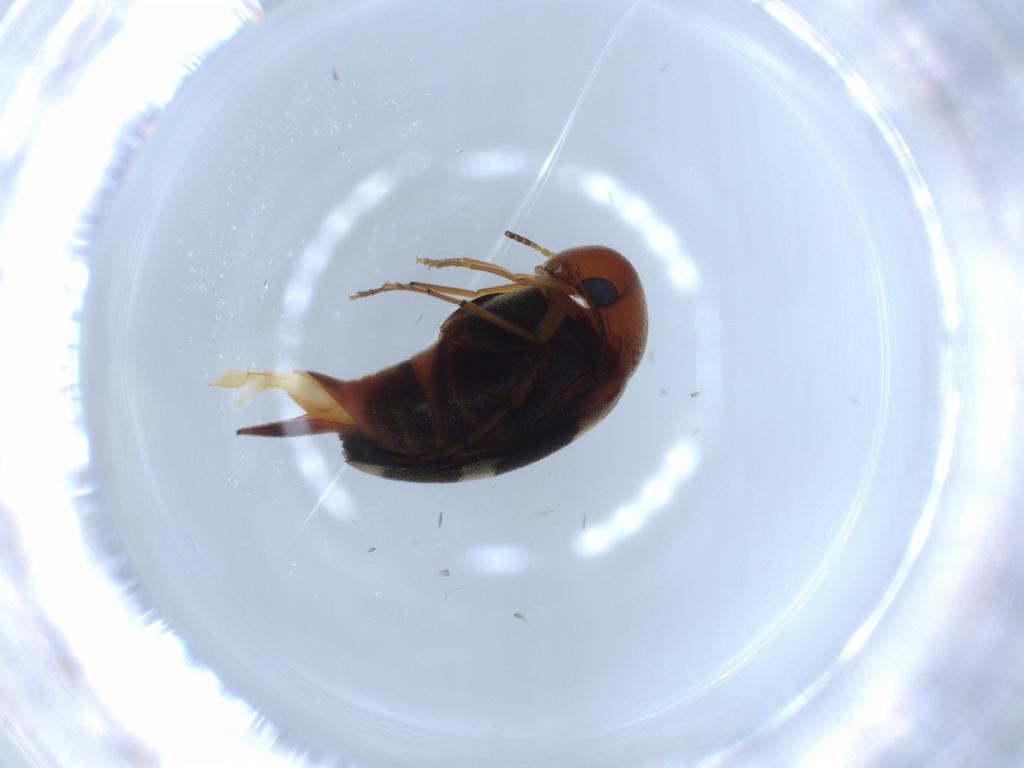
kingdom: Animalia
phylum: Arthropoda
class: Insecta
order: Coleoptera
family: Mordellidae
